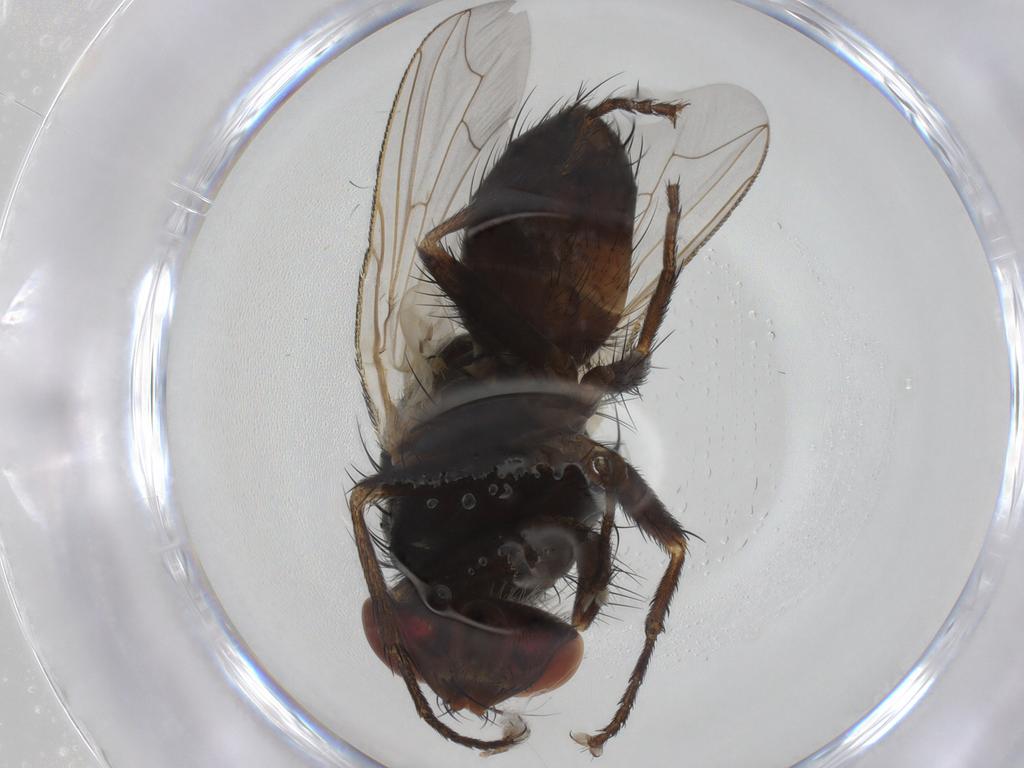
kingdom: Animalia
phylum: Arthropoda
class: Insecta
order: Diptera
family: Sarcophagidae
